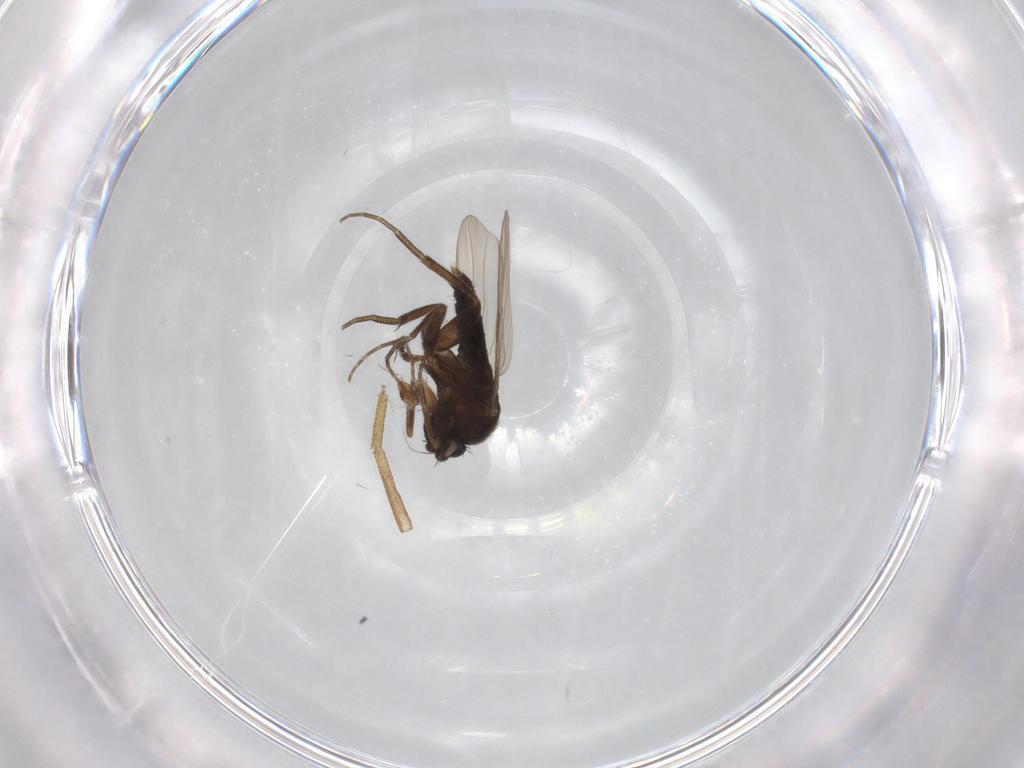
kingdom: Animalia
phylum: Arthropoda
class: Insecta
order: Diptera
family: Phoridae
